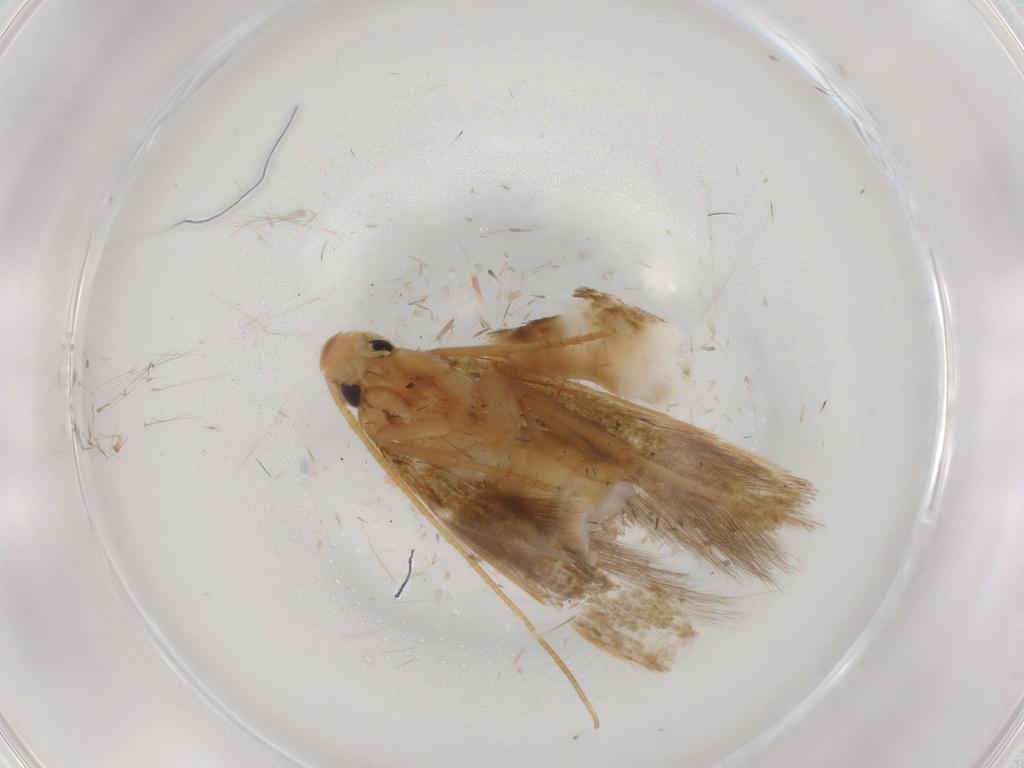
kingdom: Animalia
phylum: Arthropoda
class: Insecta
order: Lepidoptera
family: Tineidae
